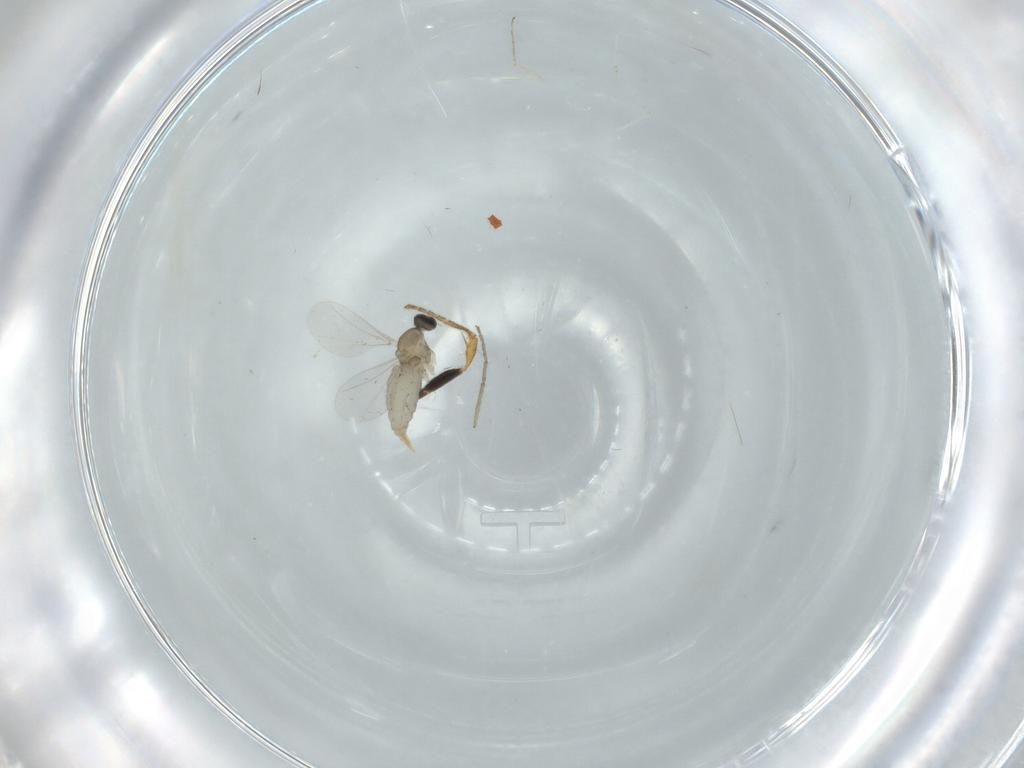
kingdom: Animalia
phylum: Arthropoda
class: Insecta
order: Diptera
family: Cecidomyiidae
